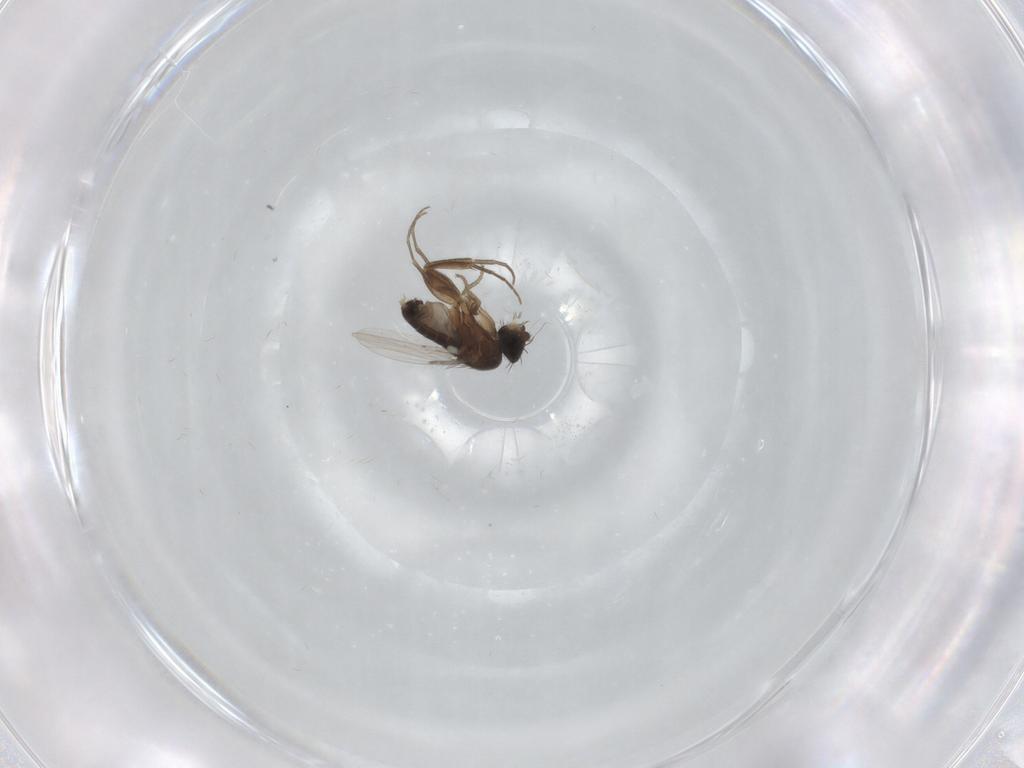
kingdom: Animalia
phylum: Arthropoda
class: Insecta
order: Diptera
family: Phoridae
